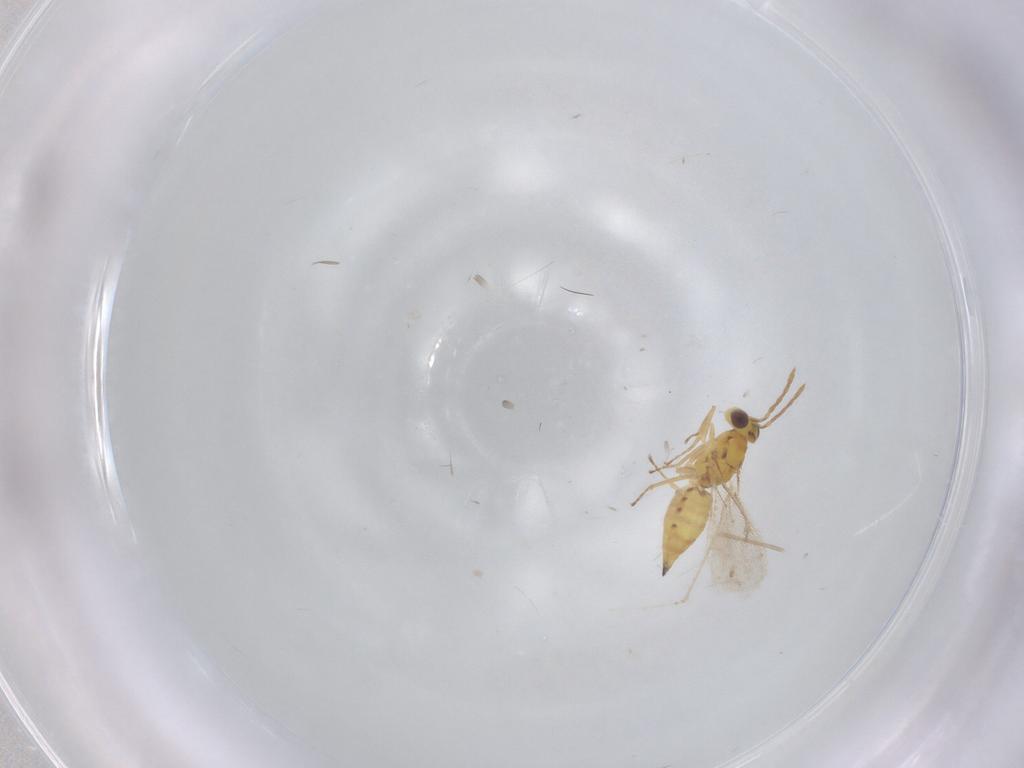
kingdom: Animalia
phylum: Arthropoda
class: Insecta
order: Hymenoptera
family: Eulophidae
